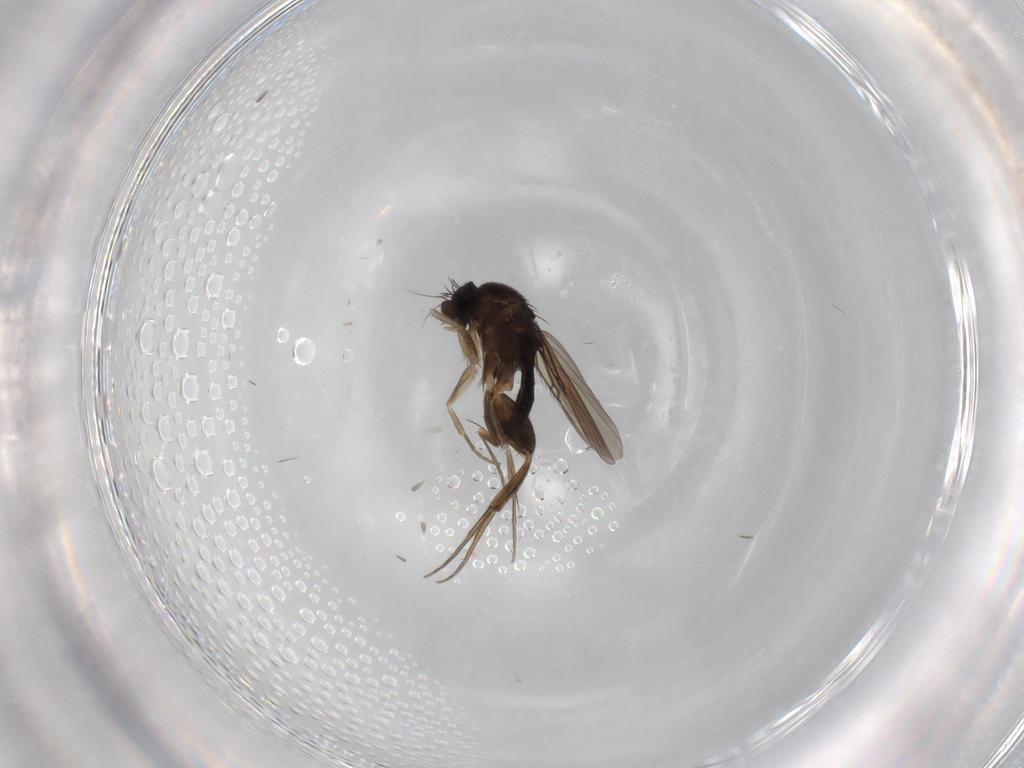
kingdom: Animalia
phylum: Arthropoda
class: Insecta
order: Diptera
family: Phoridae
